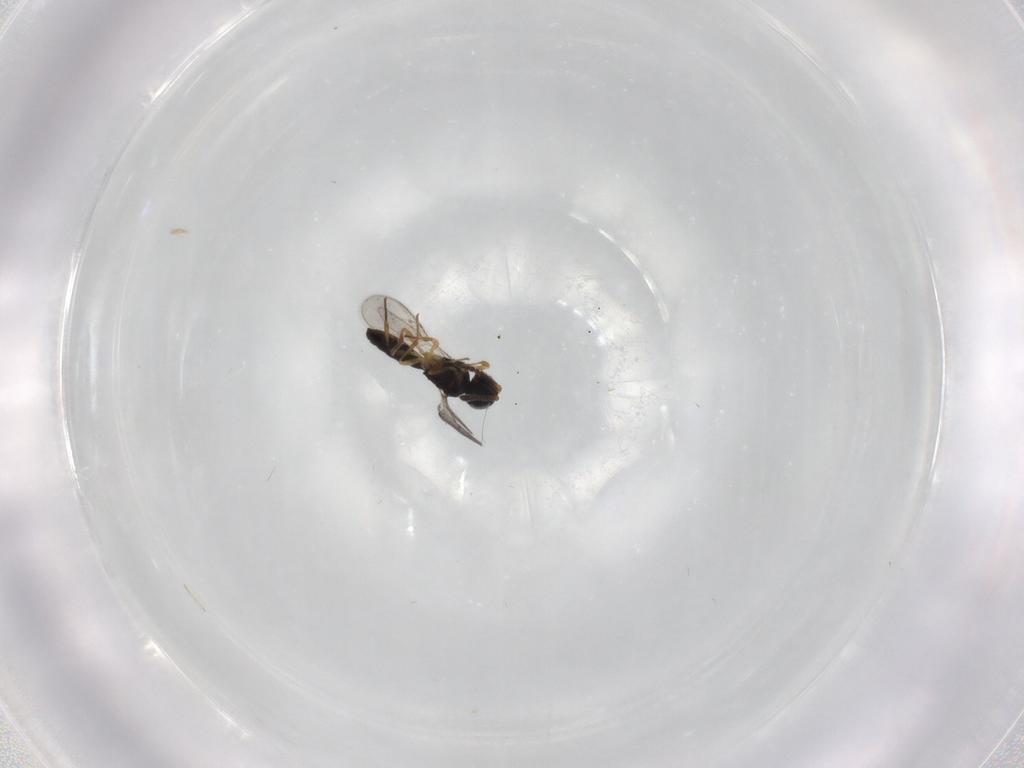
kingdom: Animalia
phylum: Arthropoda
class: Insecta
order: Hymenoptera
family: Scelionidae
